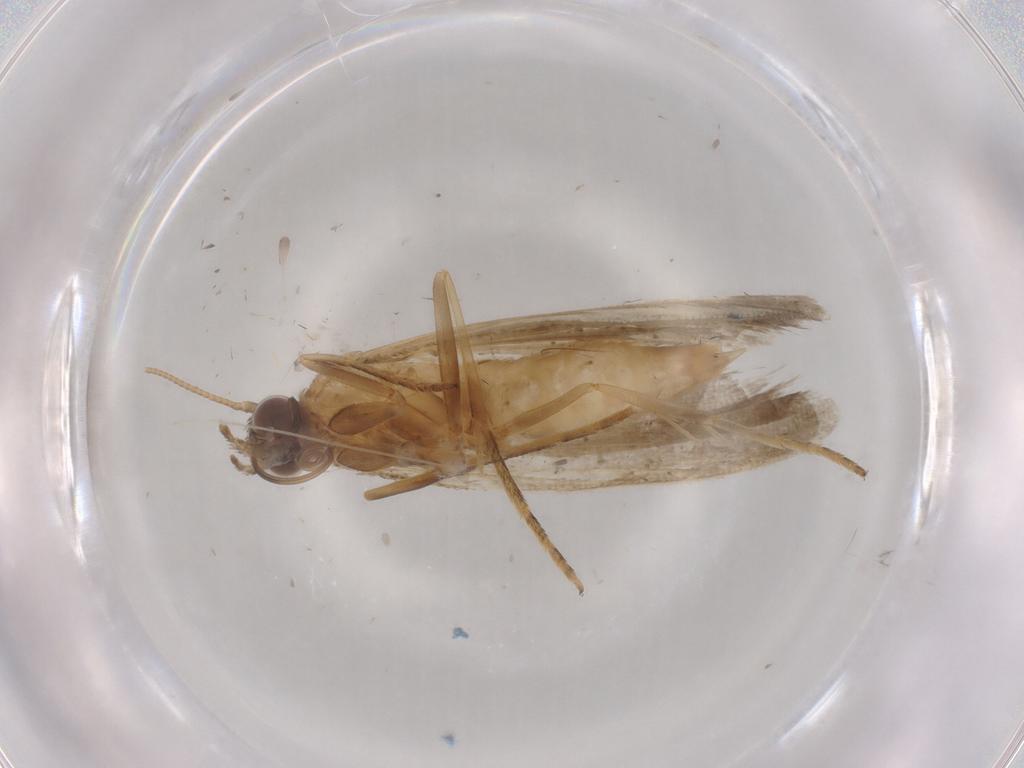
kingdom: Animalia
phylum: Arthropoda
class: Insecta
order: Lepidoptera
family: Noctuidae
